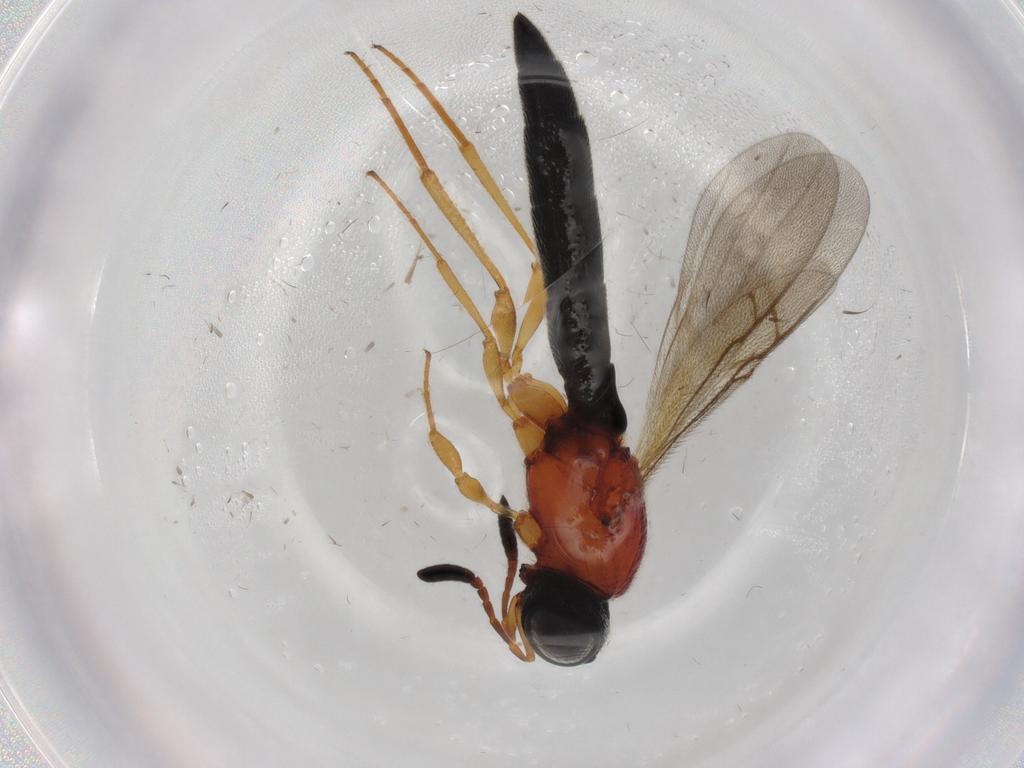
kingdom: Animalia
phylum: Arthropoda
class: Insecta
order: Hymenoptera
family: Scelionidae
